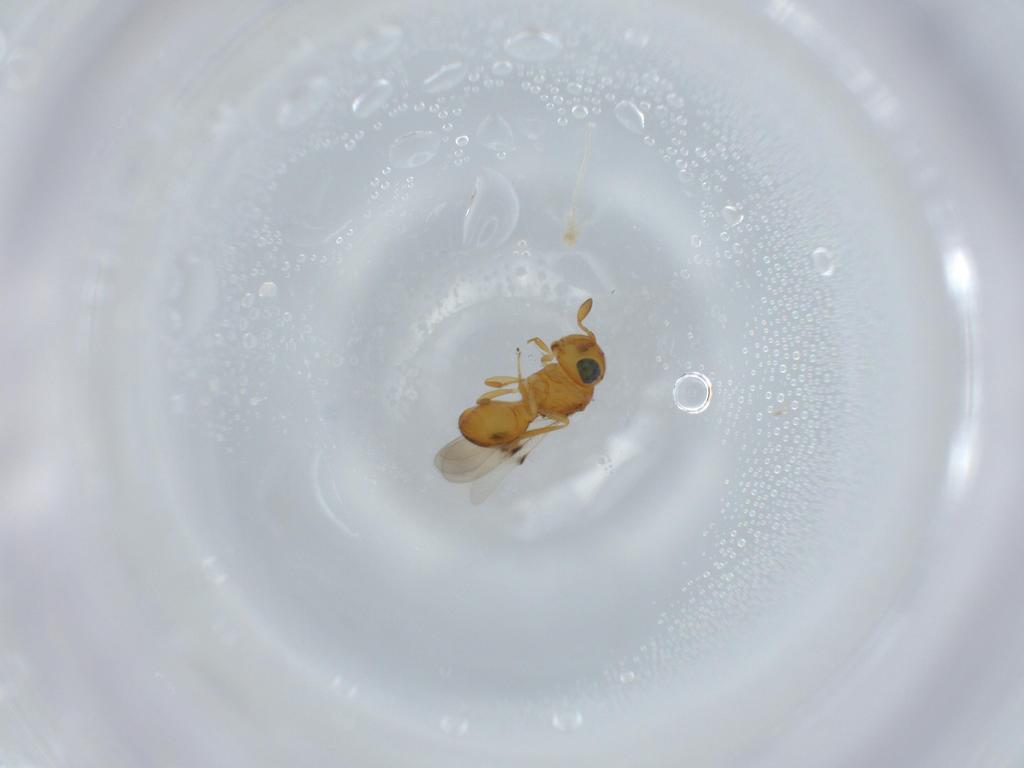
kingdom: Animalia
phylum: Arthropoda
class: Insecta
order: Hymenoptera
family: Scelionidae
